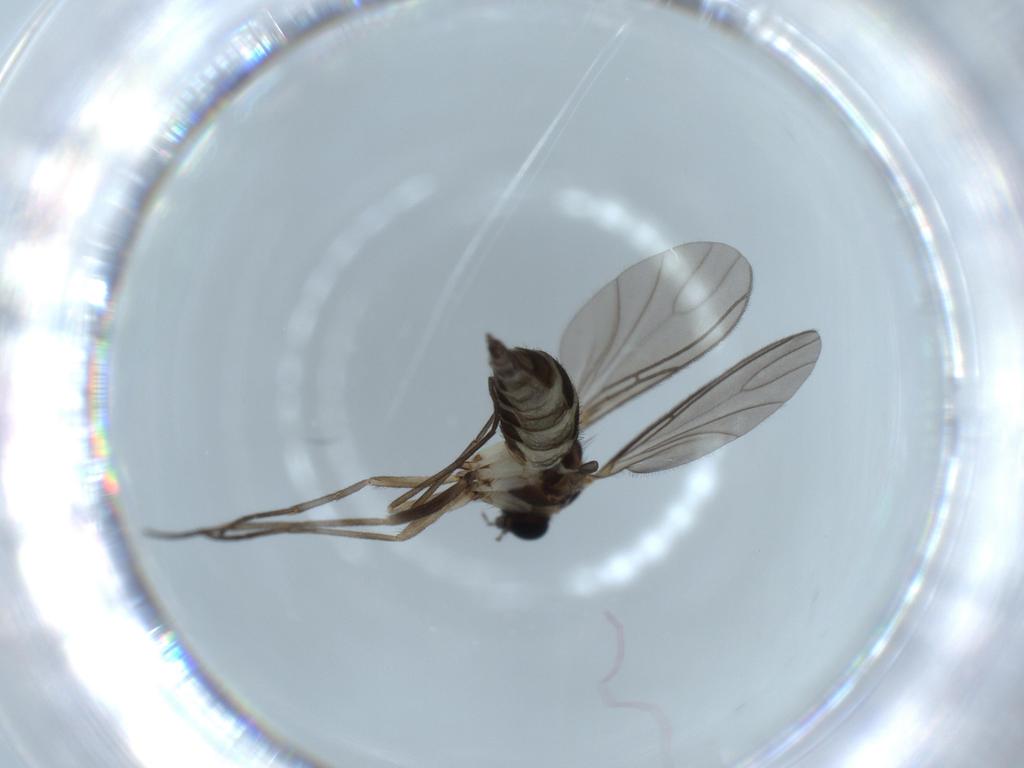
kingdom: Animalia
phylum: Arthropoda
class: Insecta
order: Diptera
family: Sciaridae
